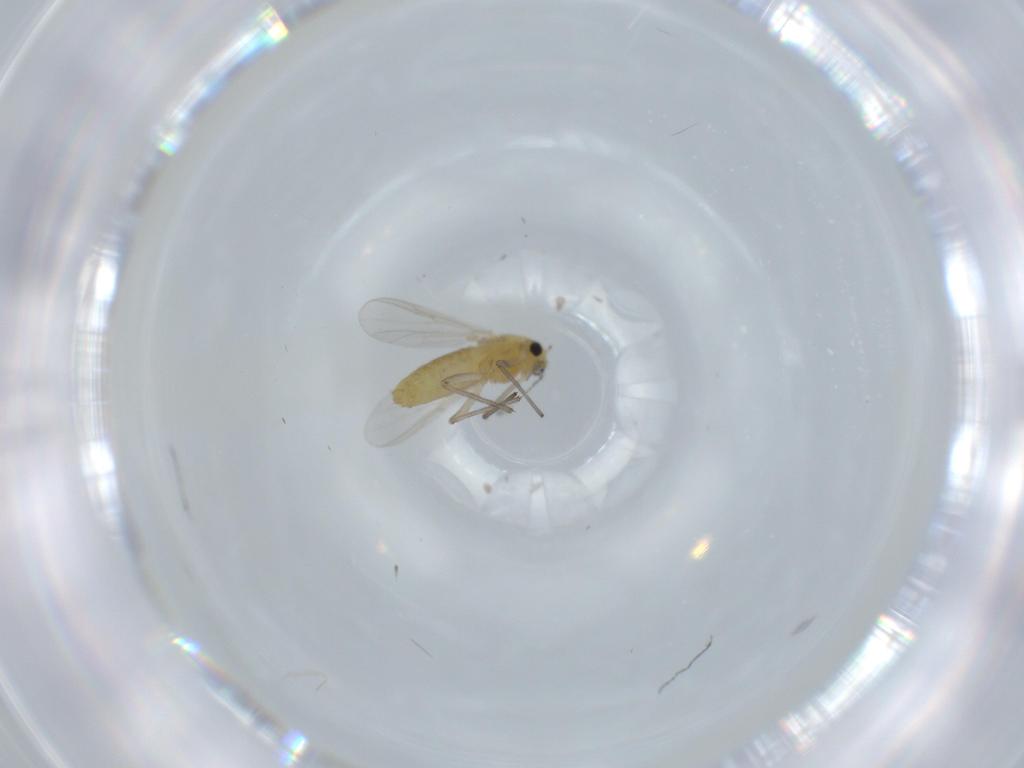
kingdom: Animalia
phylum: Arthropoda
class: Insecta
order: Diptera
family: Chironomidae
